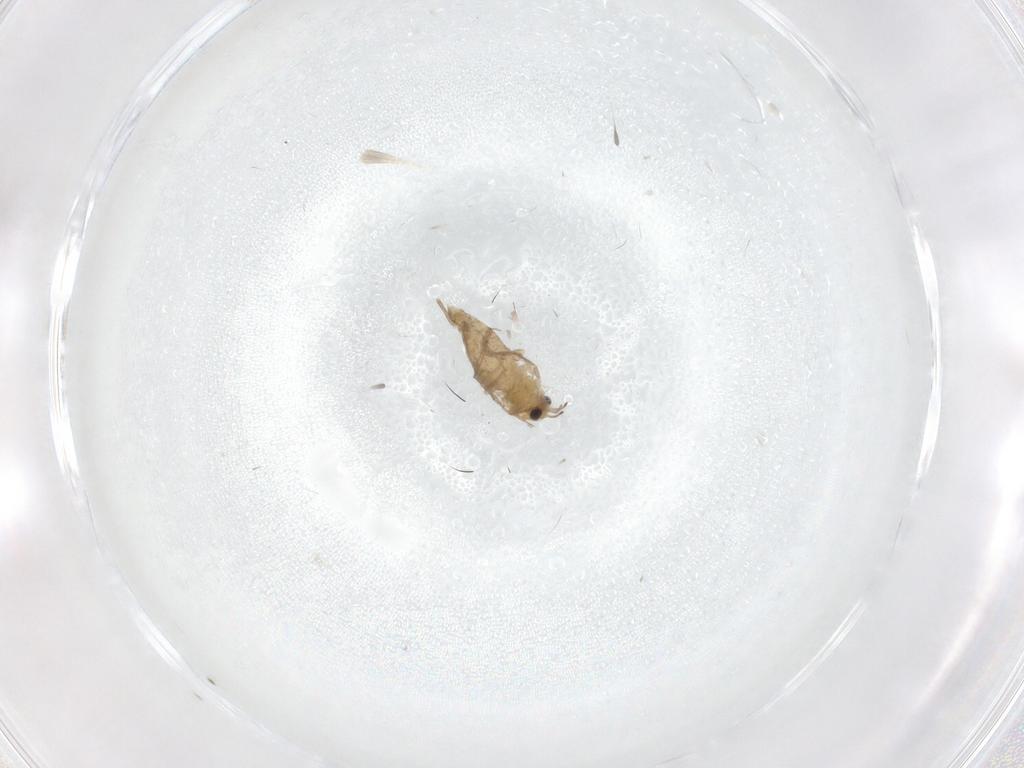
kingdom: Animalia
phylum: Arthropoda
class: Insecta
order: Diptera
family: Chironomidae
